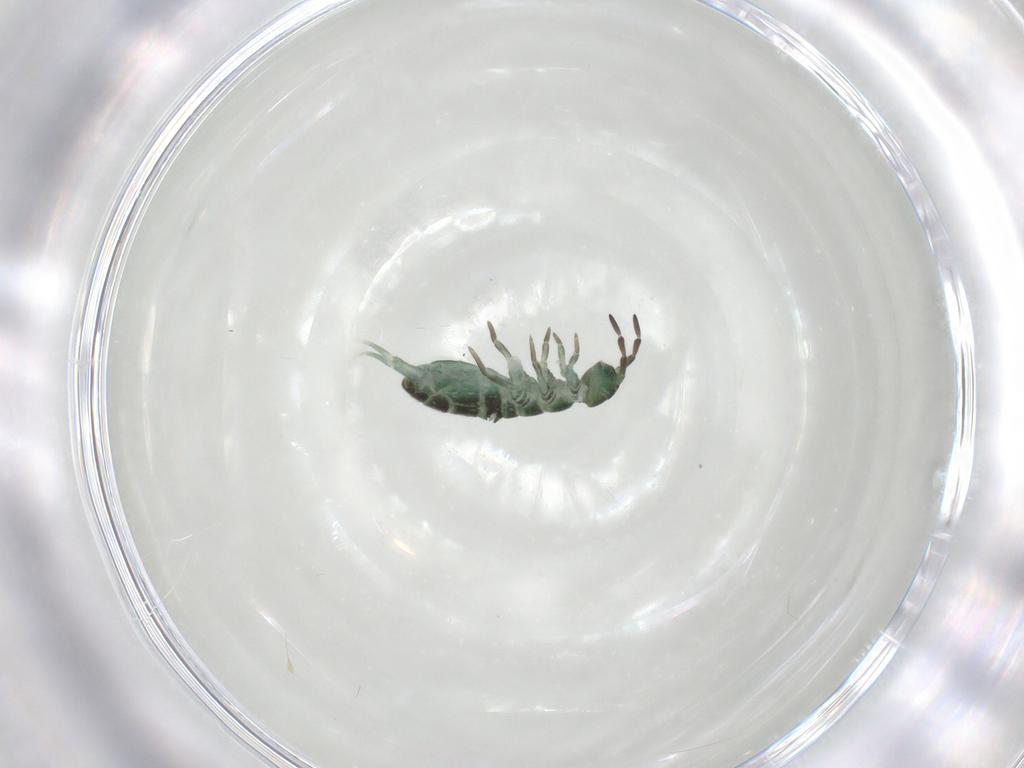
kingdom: Animalia
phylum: Arthropoda
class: Collembola
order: Entomobryomorpha
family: Isotomidae
